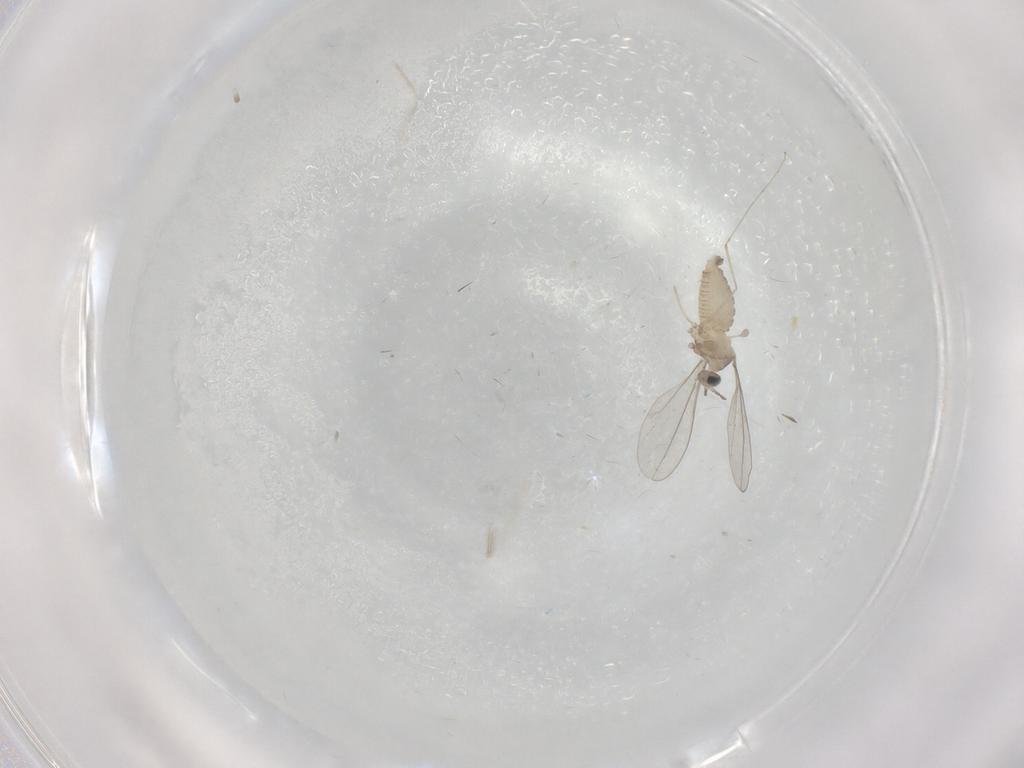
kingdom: Animalia
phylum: Arthropoda
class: Insecta
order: Diptera
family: Cecidomyiidae
